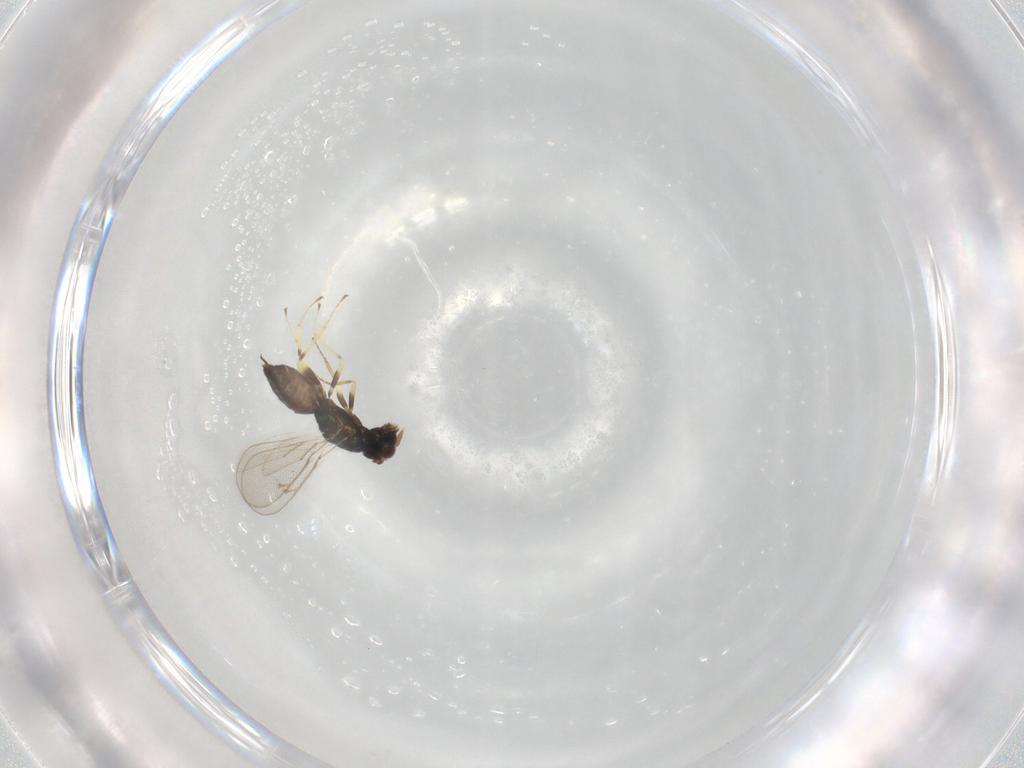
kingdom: Animalia
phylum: Arthropoda
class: Insecta
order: Hymenoptera
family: Eulophidae
